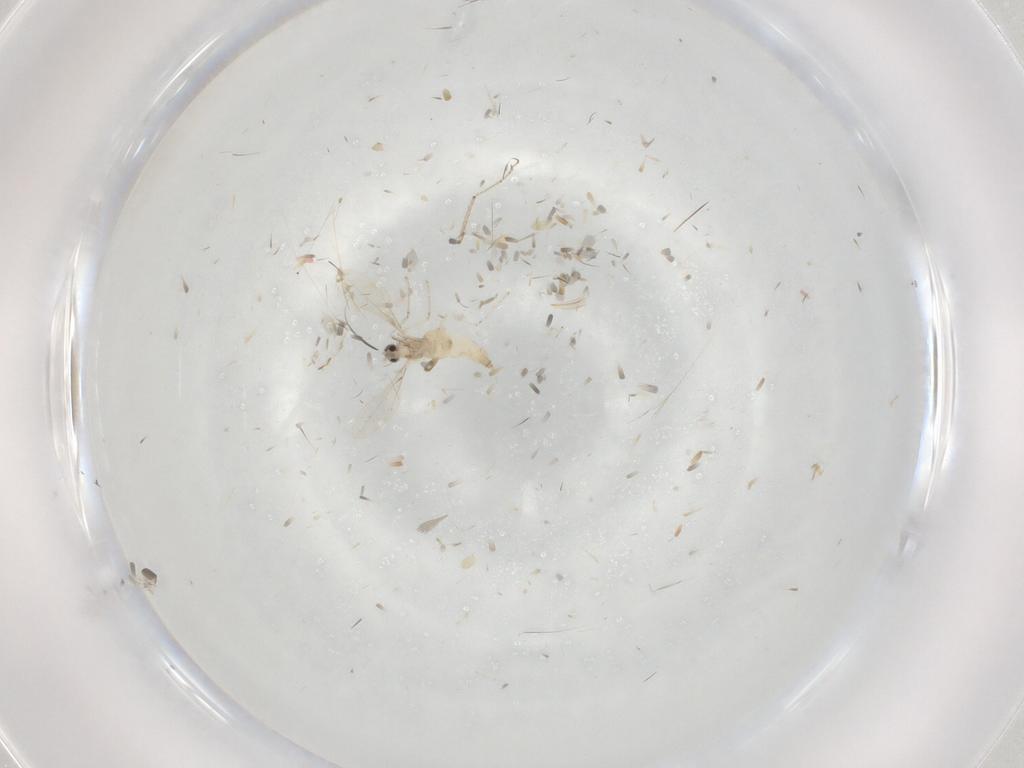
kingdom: Animalia
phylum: Arthropoda
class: Insecta
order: Diptera
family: Cecidomyiidae
